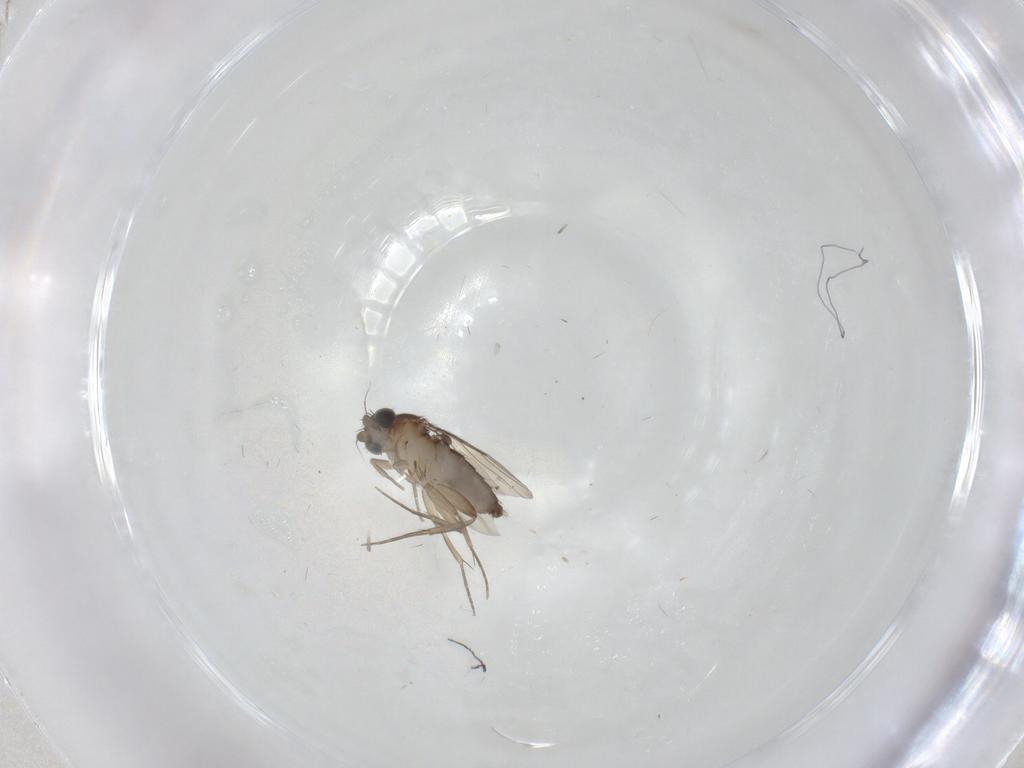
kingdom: Animalia
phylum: Arthropoda
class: Insecta
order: Diptera
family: Phoridae
